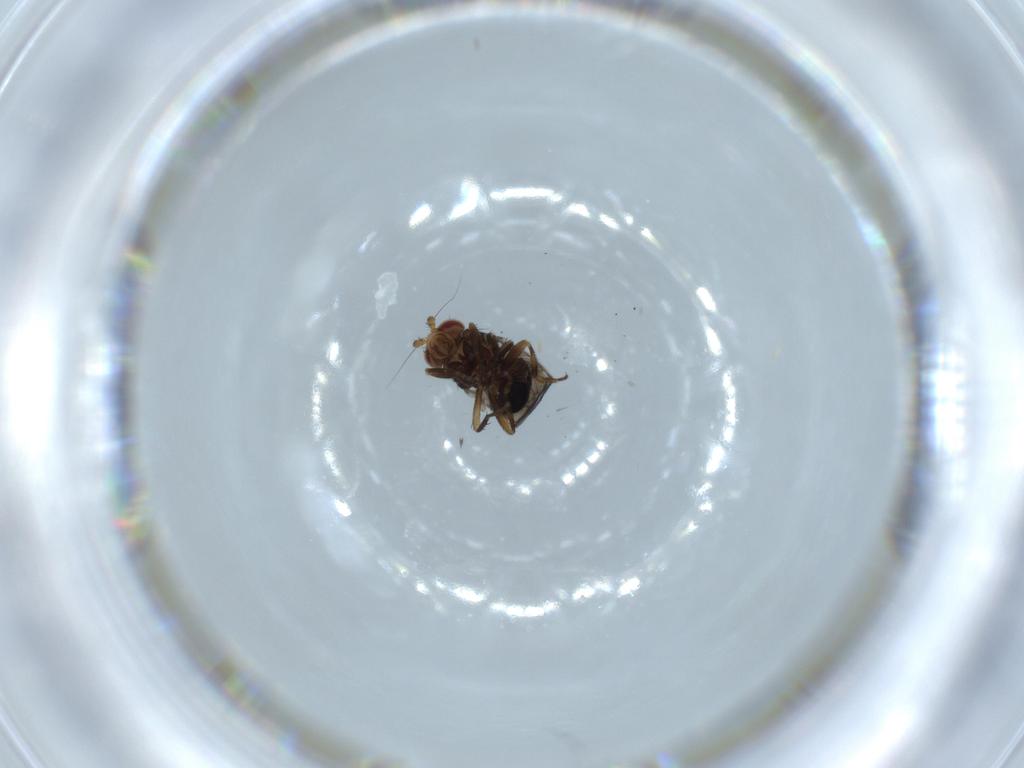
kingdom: Animalia
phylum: Arthropoda
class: Insecta
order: Diptera
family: Sphaeroceridae
